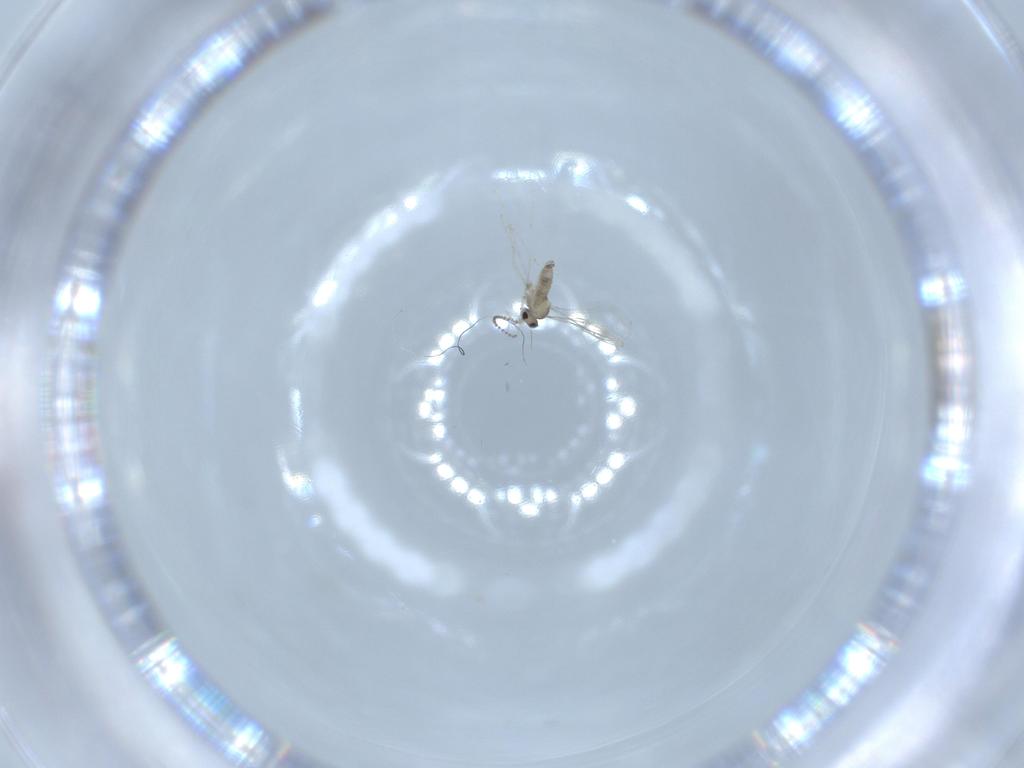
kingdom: Animalia
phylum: Arthropoda
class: Insecta
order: Diptera
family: Cecidomyiidae
